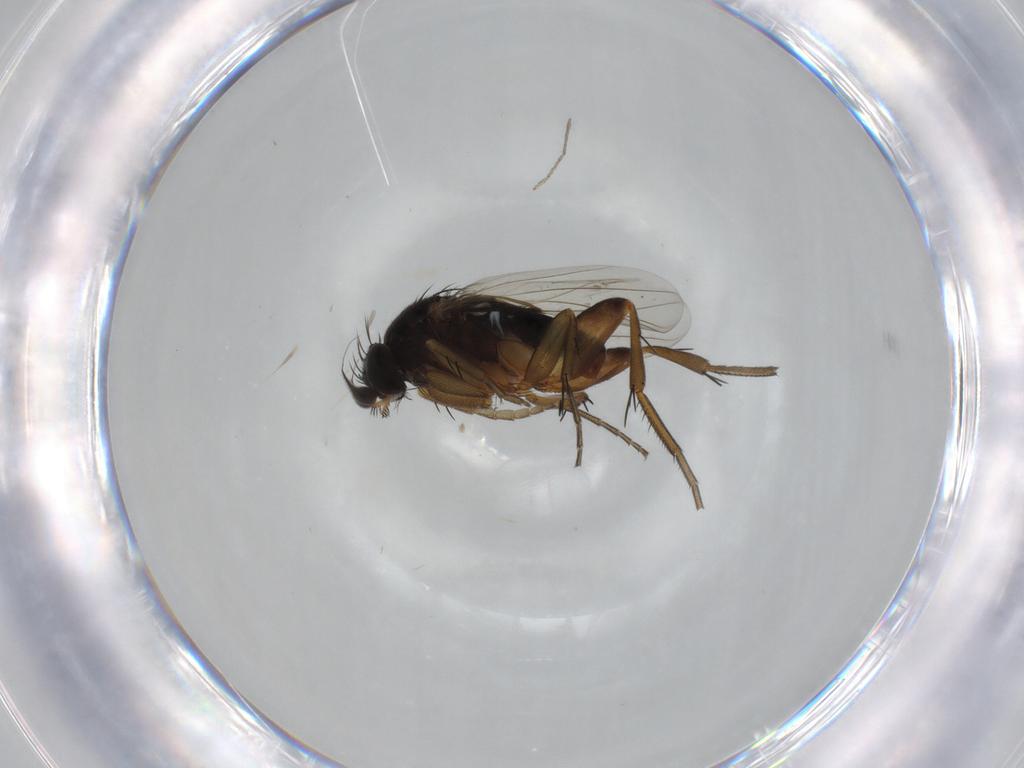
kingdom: Animalia
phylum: Arthropoda
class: Insecta
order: Diptera
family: Phoridae
